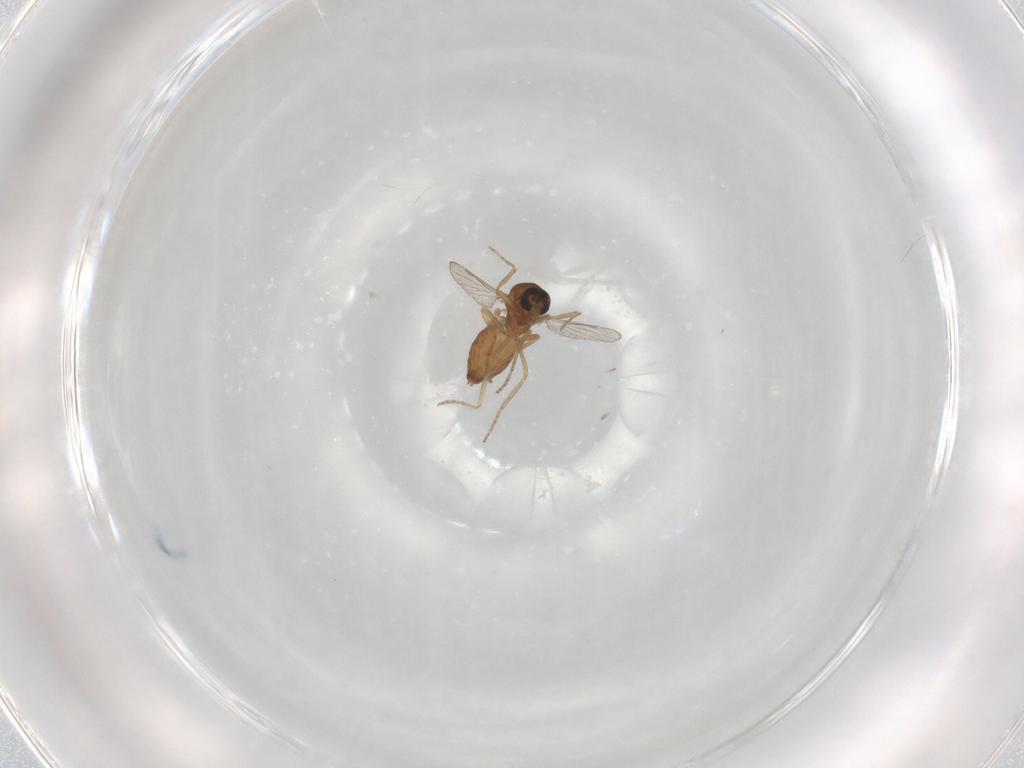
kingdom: Animalia
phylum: Arthropoda
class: Insecta
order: Diptera
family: Ceratopogonidae
